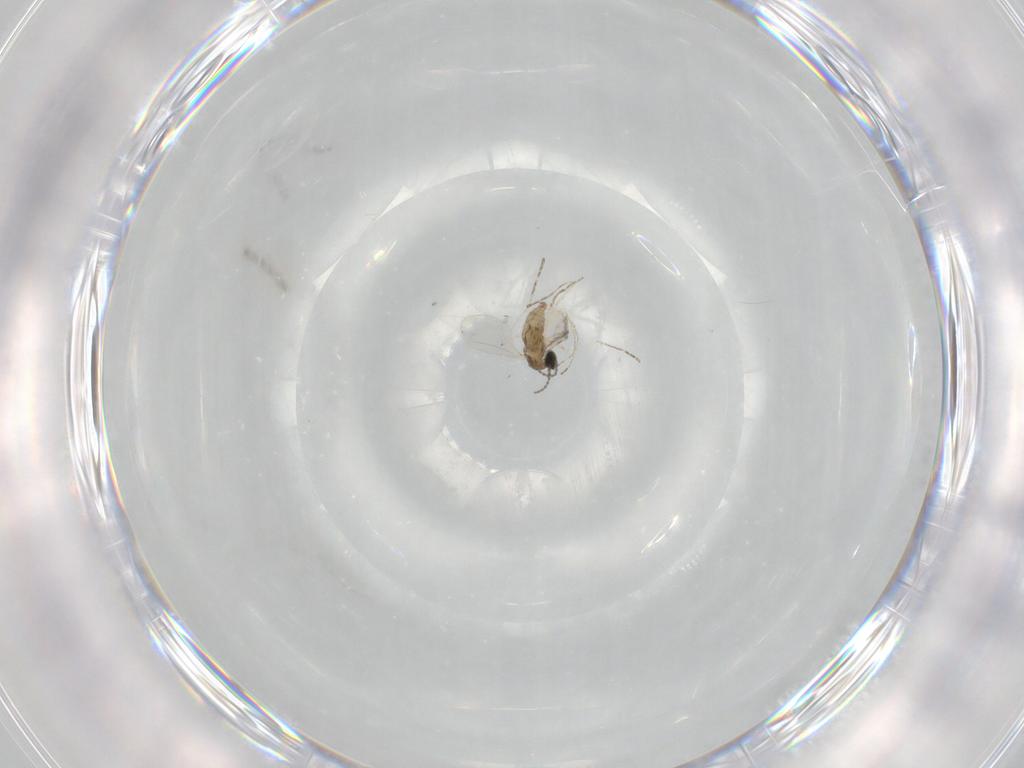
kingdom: Animalia
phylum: Arthropoda
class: Insecta
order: Diptera
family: Cecidomyiidae
